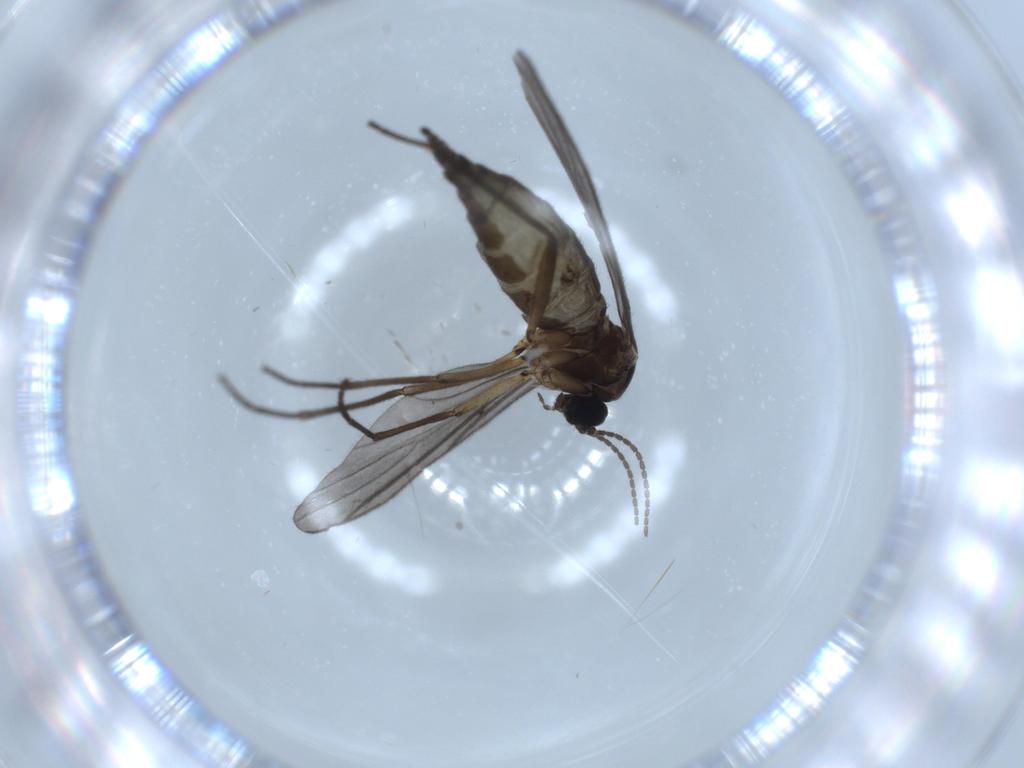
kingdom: Animalia
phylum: Arthropoda
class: Insecta
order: Diptera
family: Sciaridae
